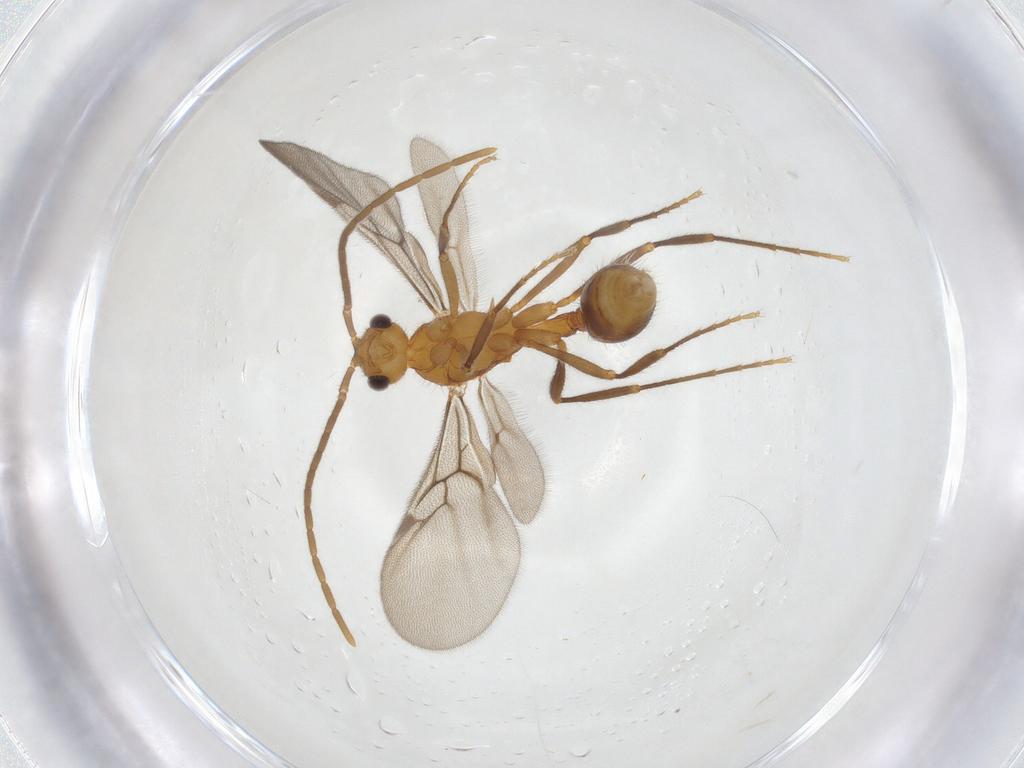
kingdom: Animalia
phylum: Arthropoda
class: Insecta
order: Hymenoptera
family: Formicidae
